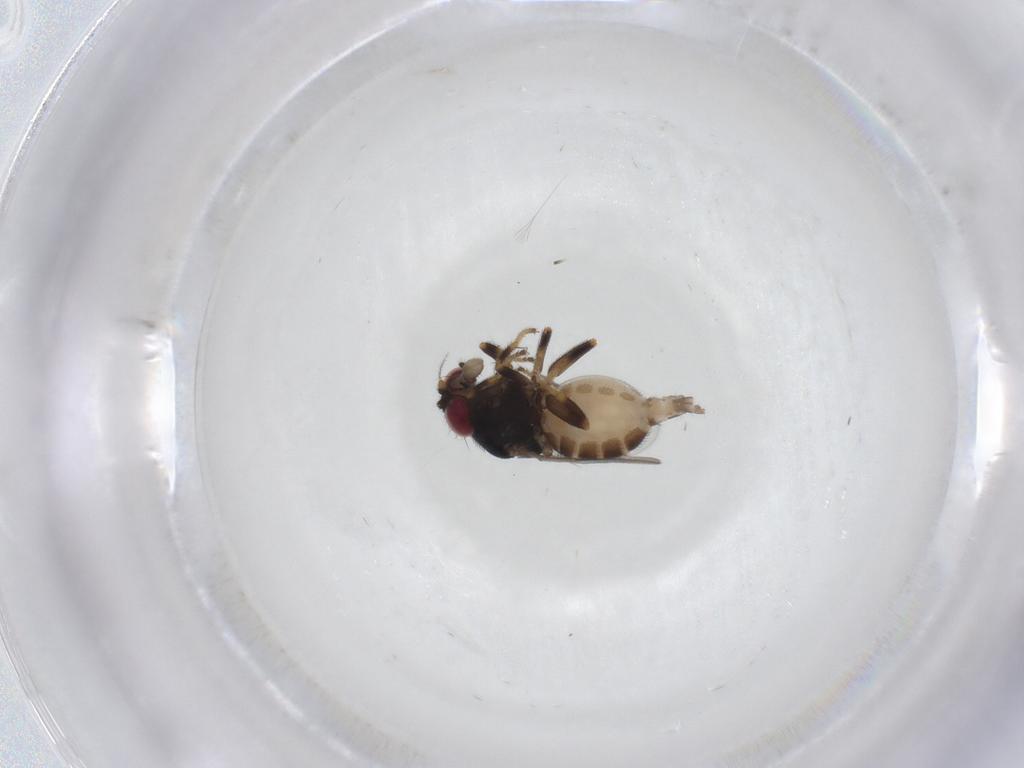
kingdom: Animalia
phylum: Arthropoda
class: Insecta
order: Diptera
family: Chloropidae
